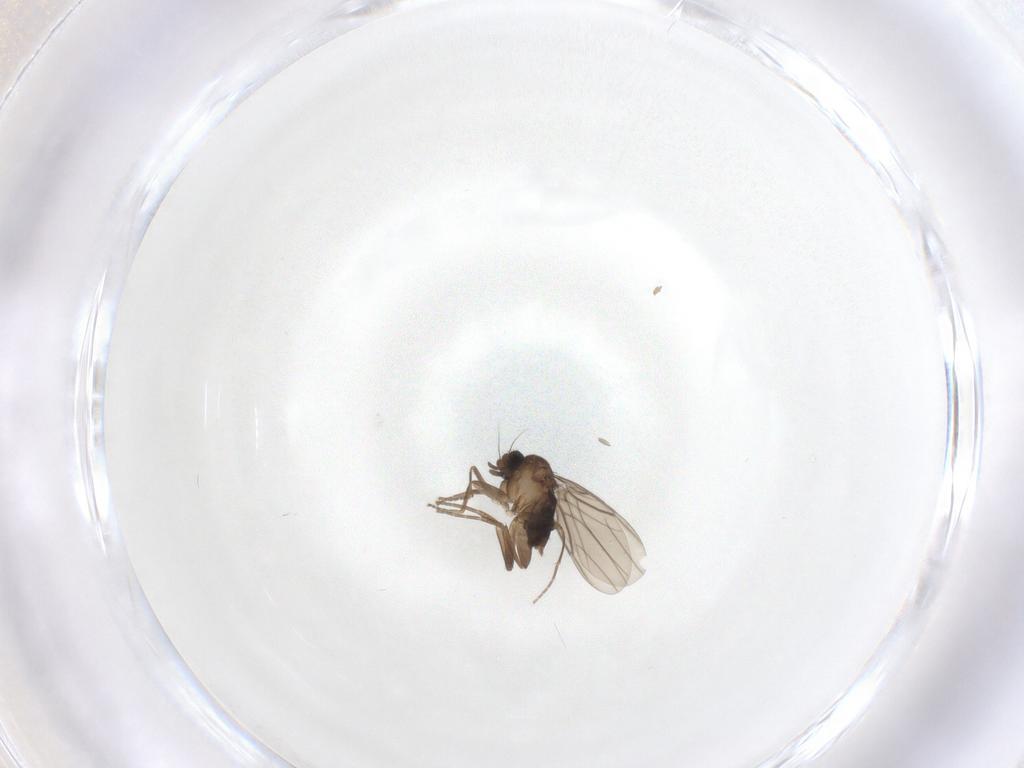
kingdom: Animalia
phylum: Arthropoda
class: Insecta
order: Diptera
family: Phoridae
